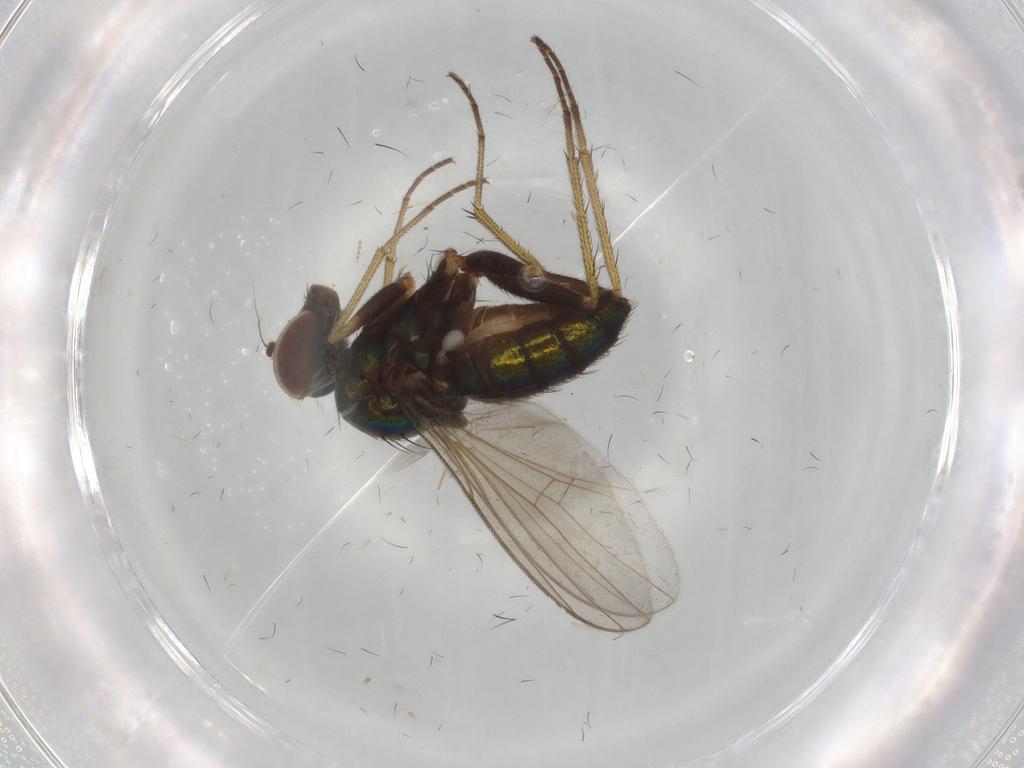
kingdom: Animalia
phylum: Arthropoda
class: Insecta
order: Diptera
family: Dolichopodidae
